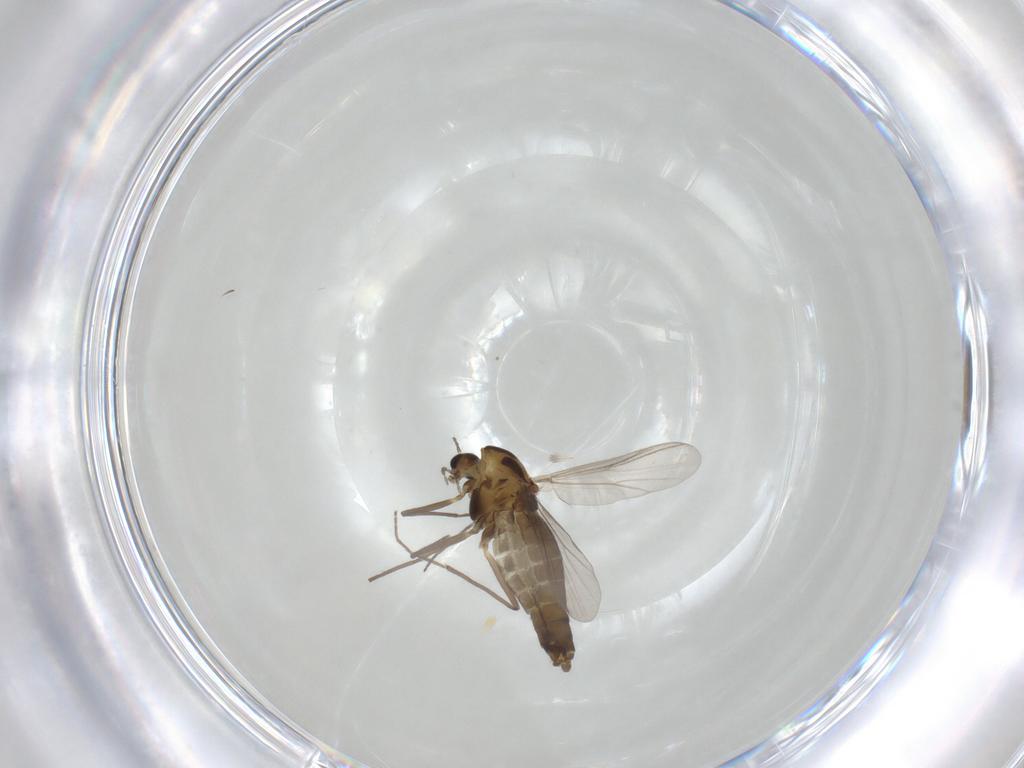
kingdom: Animalia
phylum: Arthropoda
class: Insecta
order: Diptera
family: Chironomidae
